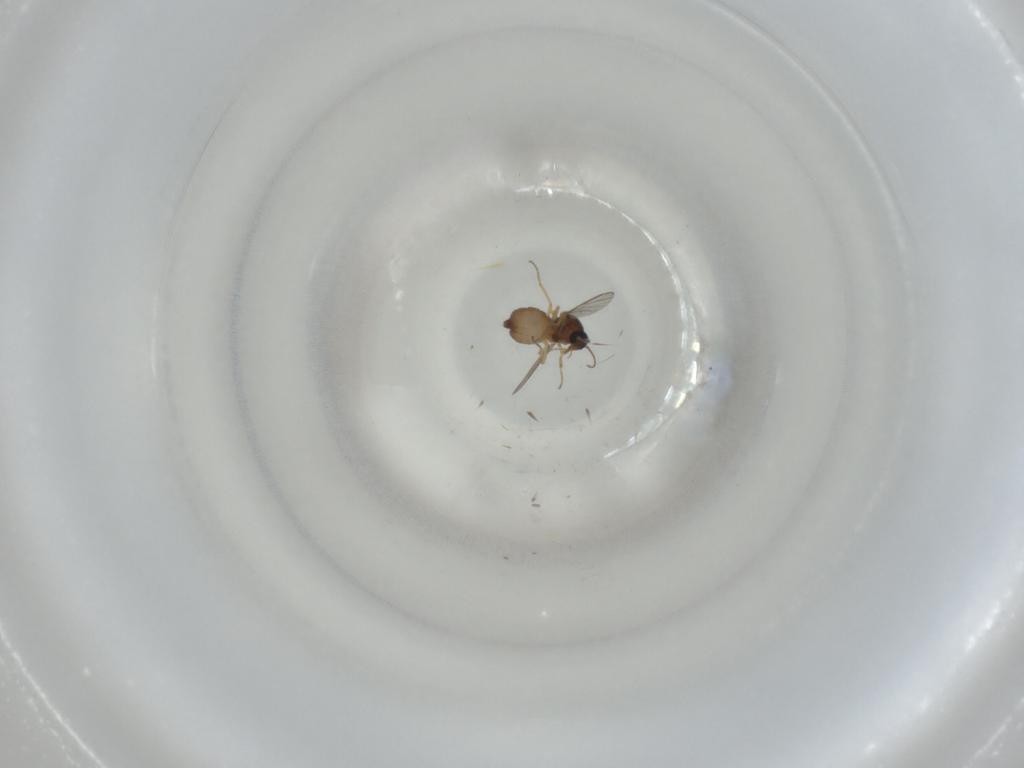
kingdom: Animalia
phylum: Arthropoda
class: Insecta
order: Diptera
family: Ceratopogonidae
